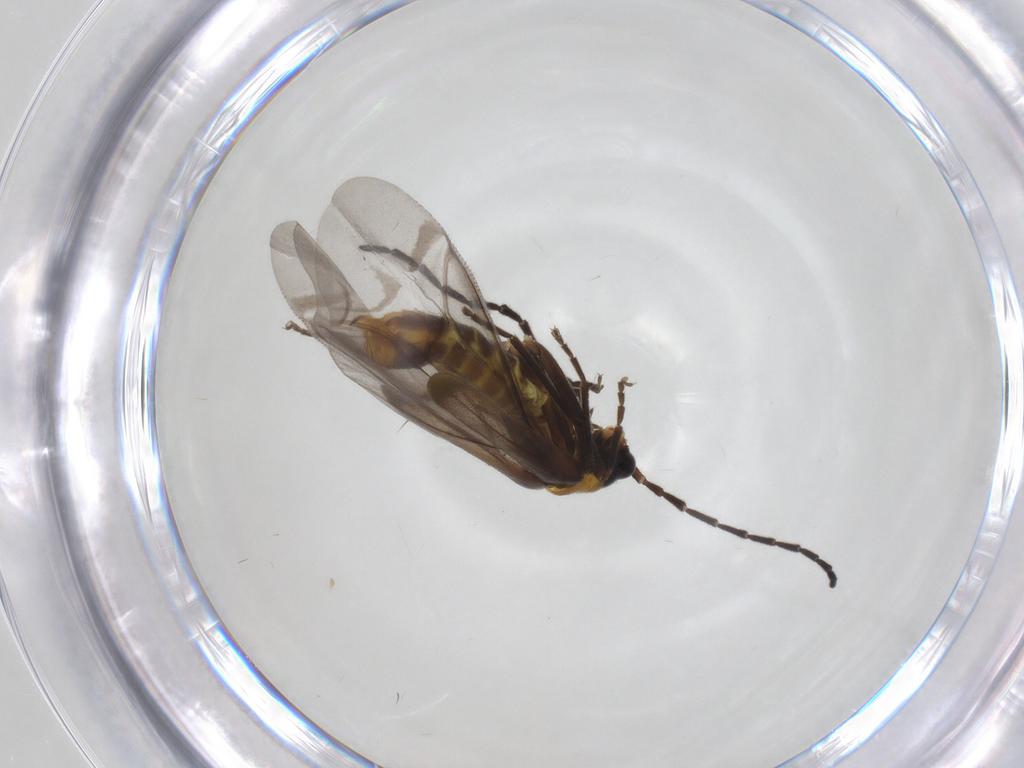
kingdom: Animalia
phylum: Arthropoda
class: Insecta
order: Coleoptera
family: Cantharidae
